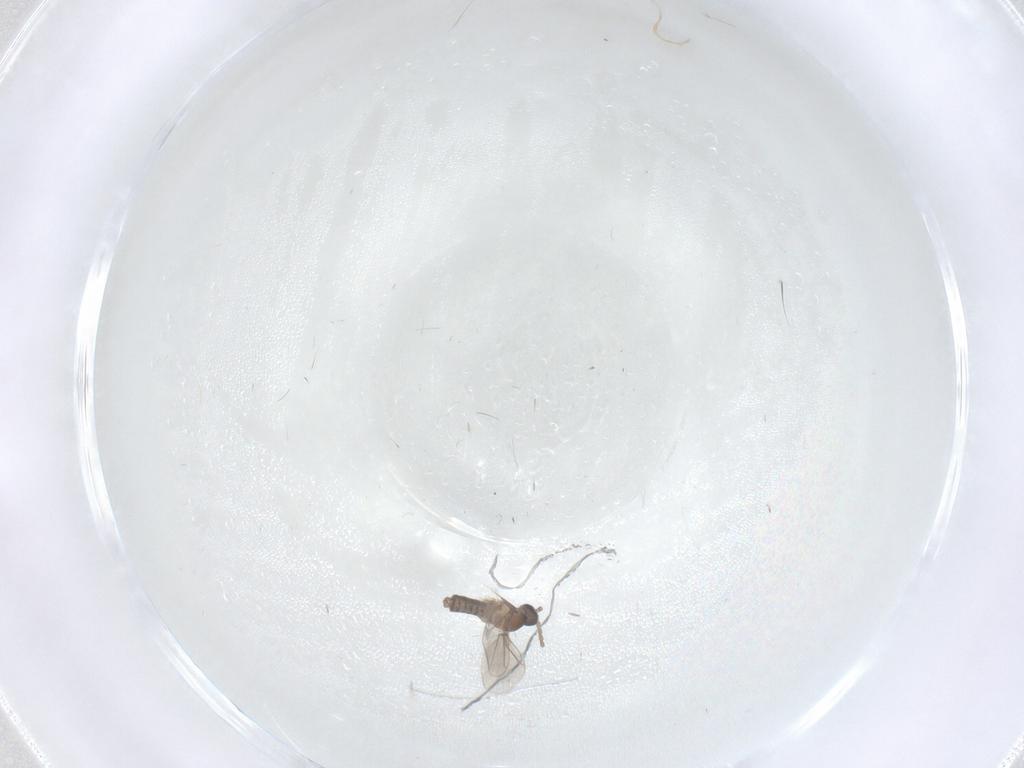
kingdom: Animalia
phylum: Arthropoda
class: Insecta
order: Diptera
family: Cecidomyiidae
